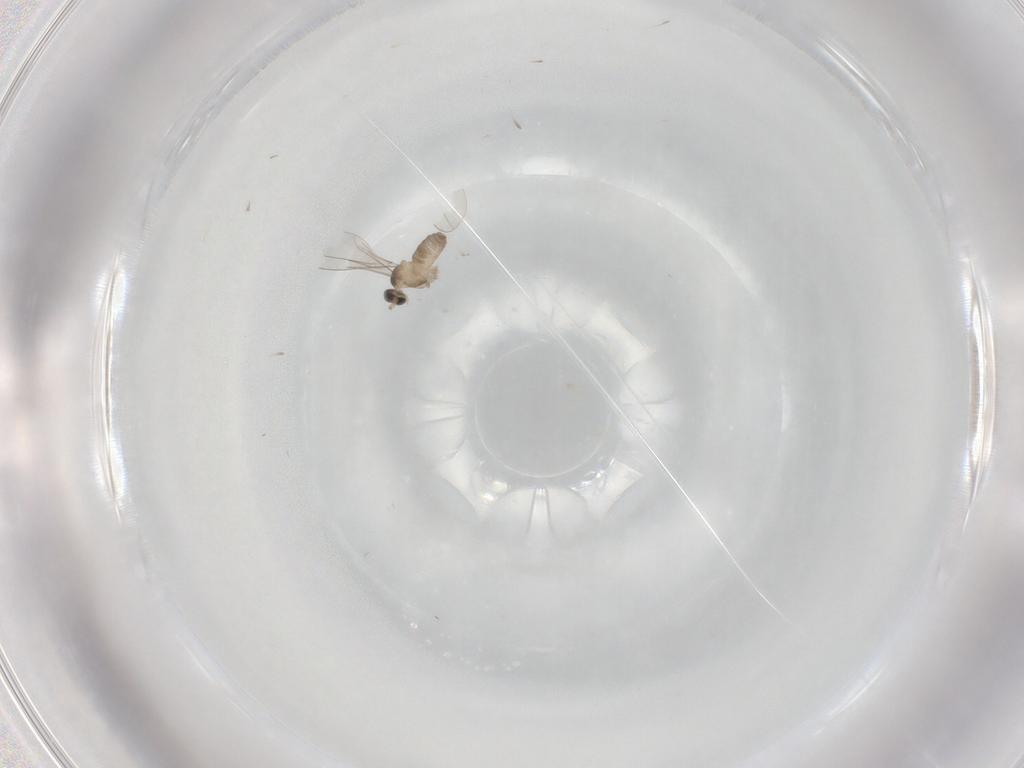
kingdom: Animalia
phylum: Arthropoda
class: Insecta
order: Diptera
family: Cecidomyiidae
